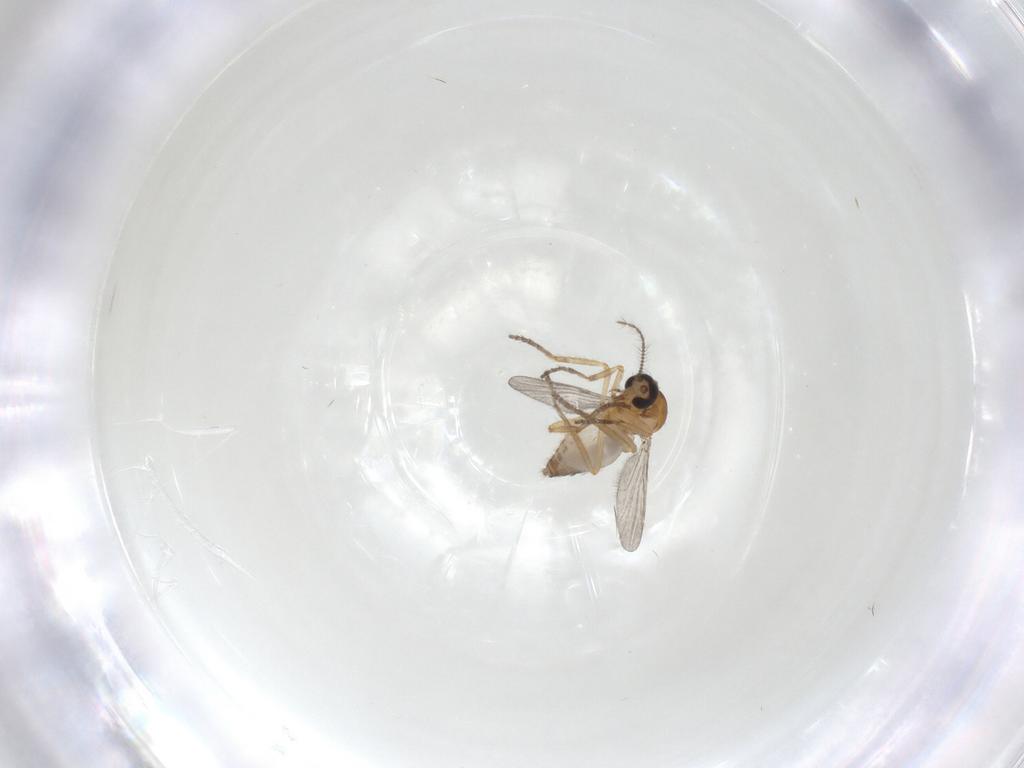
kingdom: Animalia
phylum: Arthropoda
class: Insecta
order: Diptera
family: Ceratopogonidae
